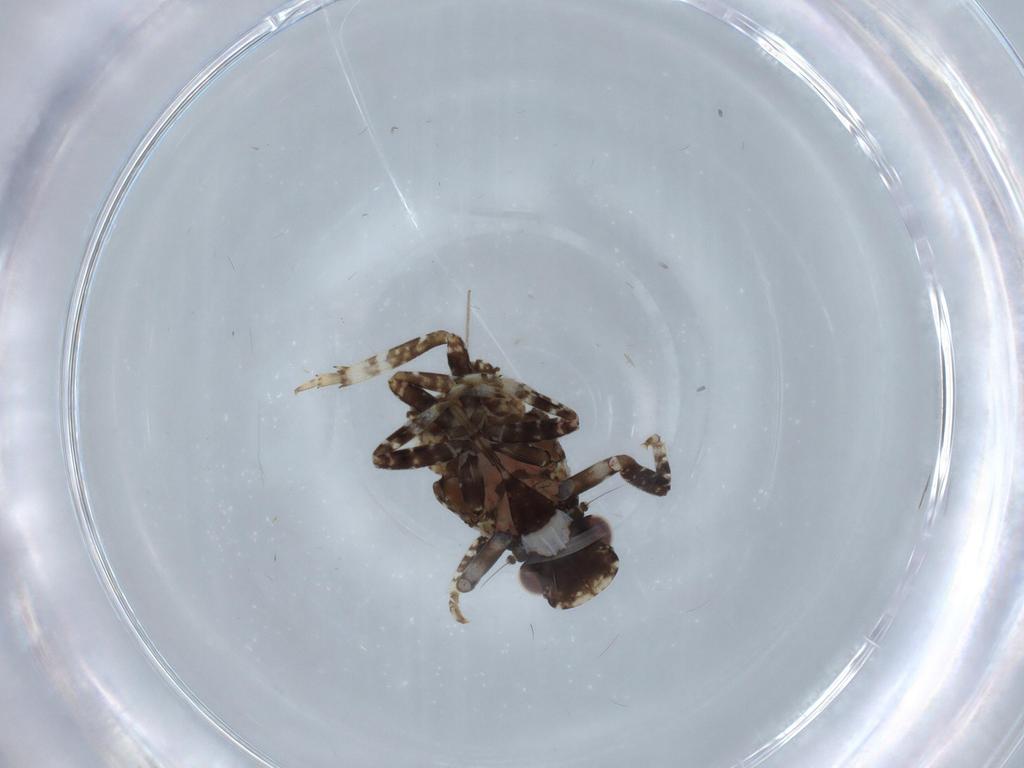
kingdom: Animalia
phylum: Arthropoda
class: Insecta
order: Hemiptera
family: Fulgoridae
